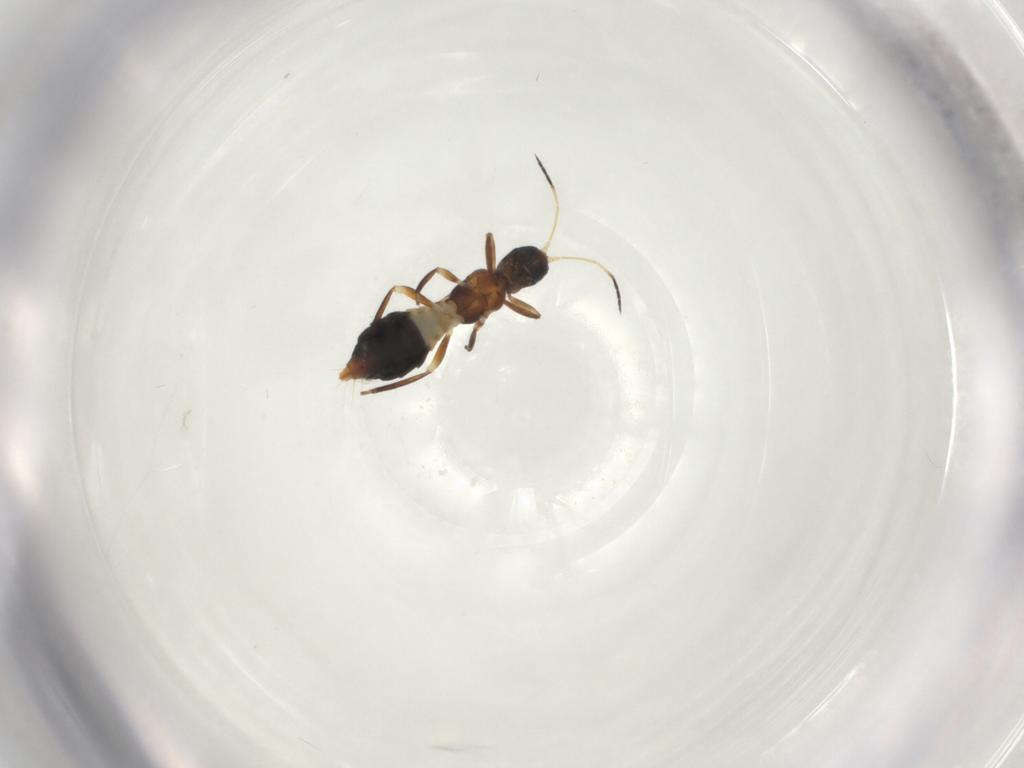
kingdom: Animalia
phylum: Arthropoda
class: Insecta
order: Thysanoptera
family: Aeolothripidae
